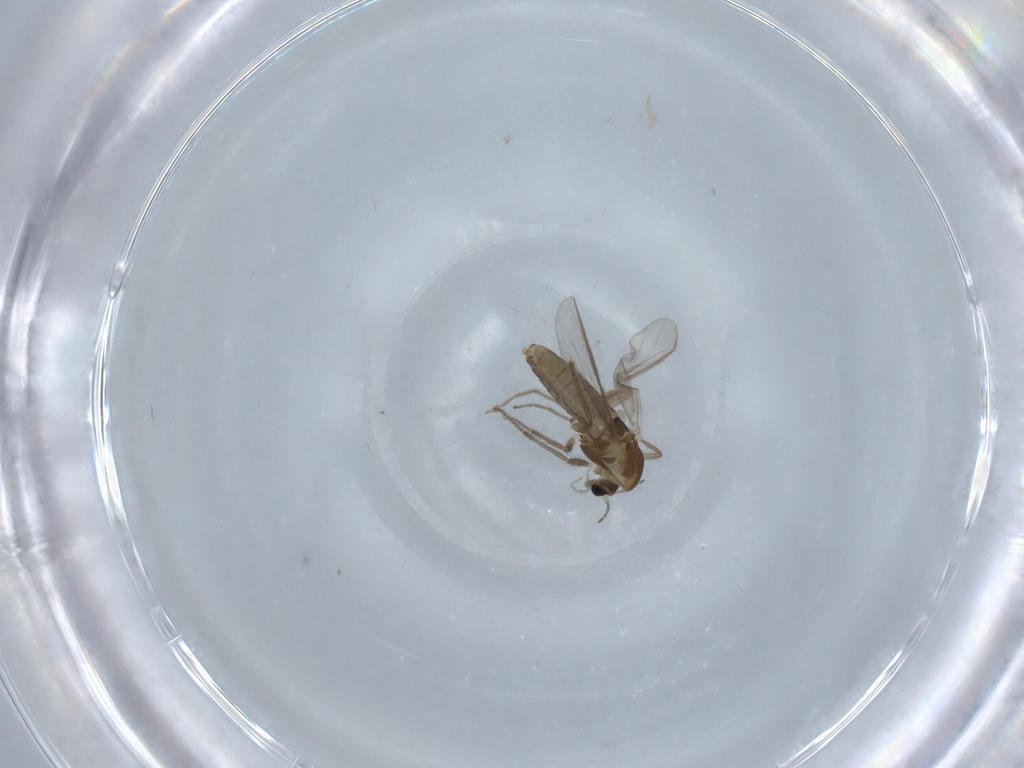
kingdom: Animalia
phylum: Arthropoda
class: Insecta
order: Diptera
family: Chironomidae
